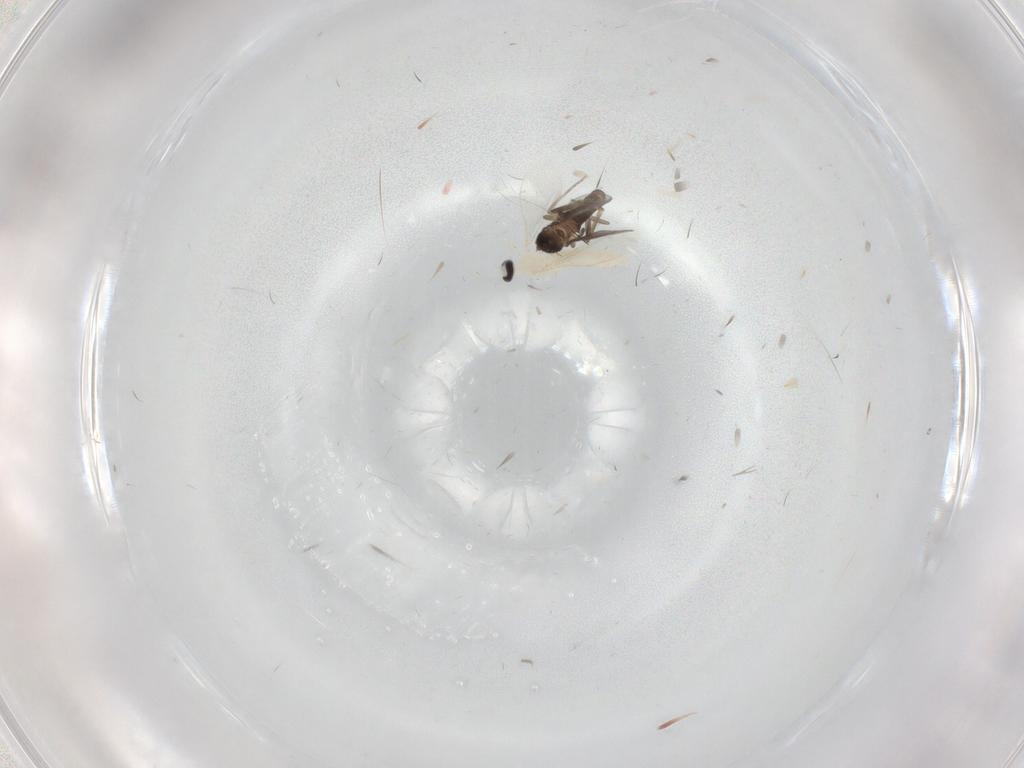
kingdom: Animalia
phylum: Arthropoda
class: Insecta
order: Diptera
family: Cecidomyiidae
